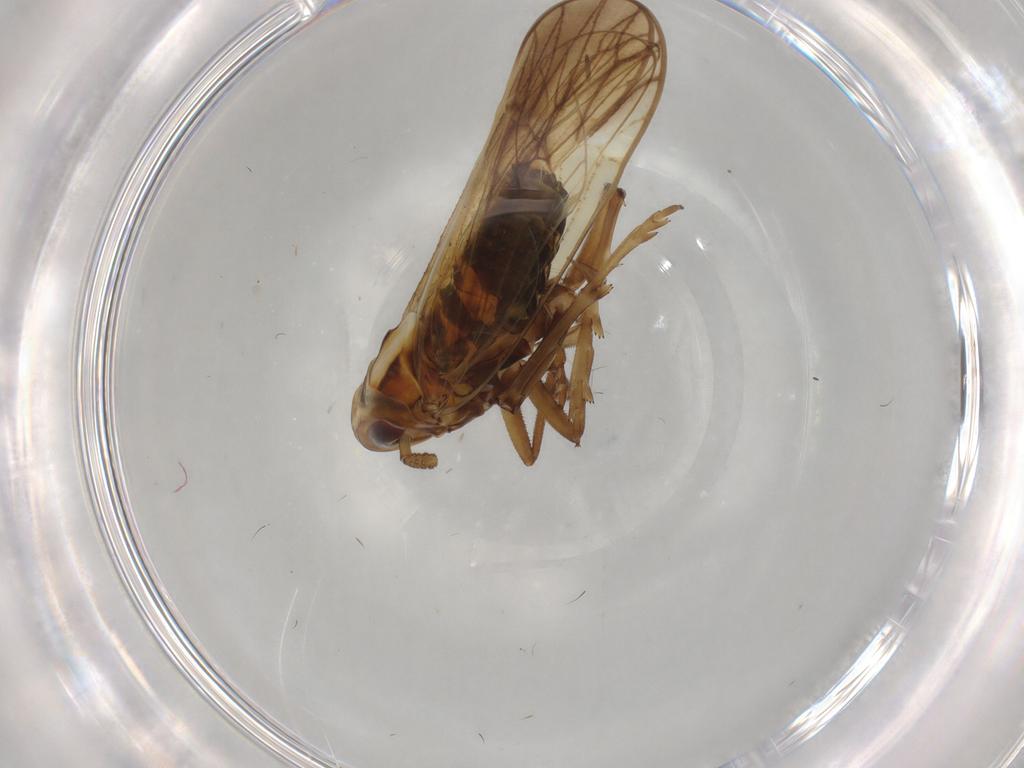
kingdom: Animalia
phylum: Arthropoda
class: Insecta
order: Hemiptera
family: Delphacidae
